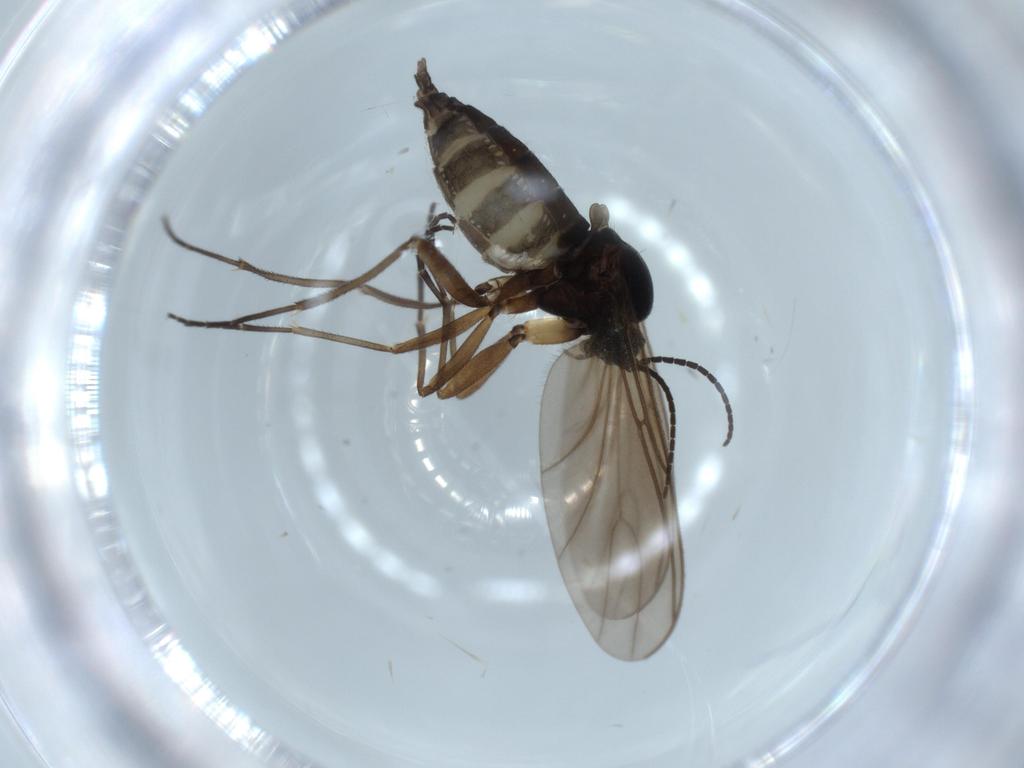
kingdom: Animalia
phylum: Arthropoda
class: Insecta
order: Diptera
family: Sciaridae
